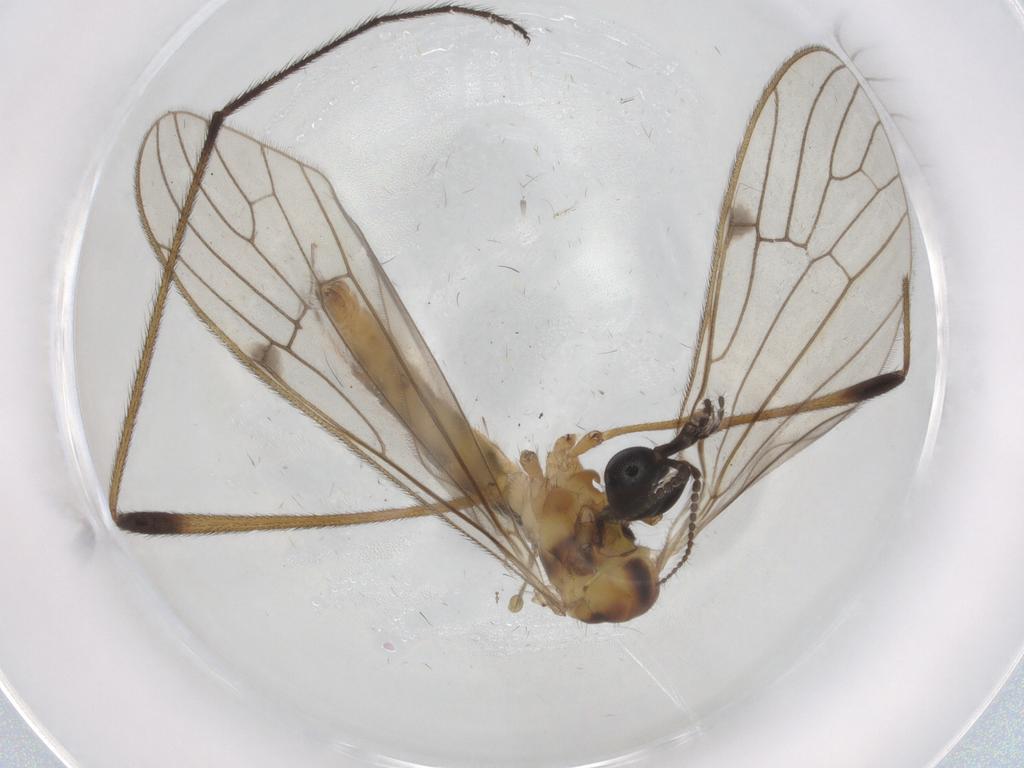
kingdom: Animalia
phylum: Arthropoda
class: Insecta
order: Diptera
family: Phoridae
